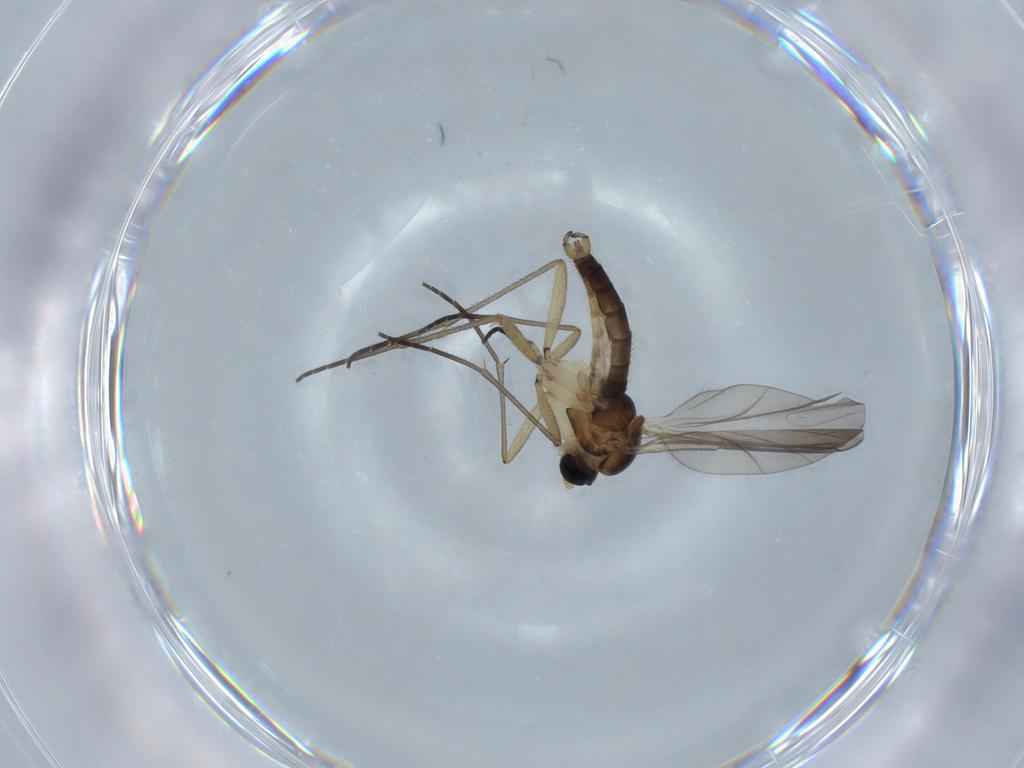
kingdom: Animalia
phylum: Arthropoda
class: Insecta
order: Diptera
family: Sciaridae
